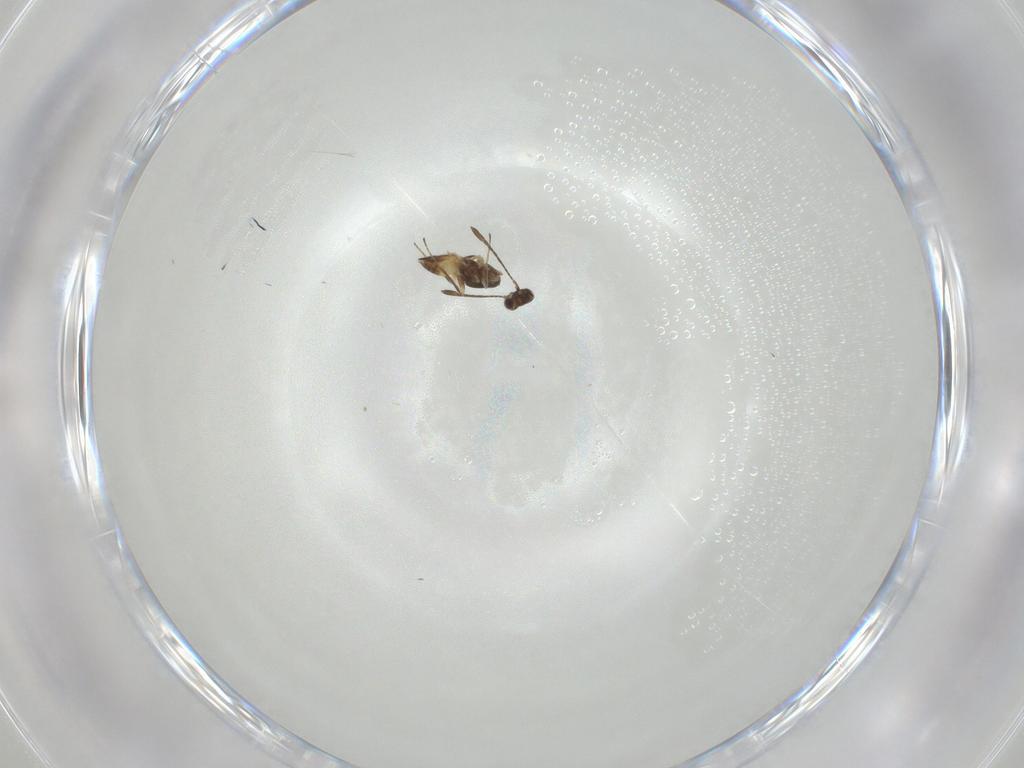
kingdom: Animalia
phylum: Arthropoda
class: Insecta
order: Hymenoptera
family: Mymaridae
